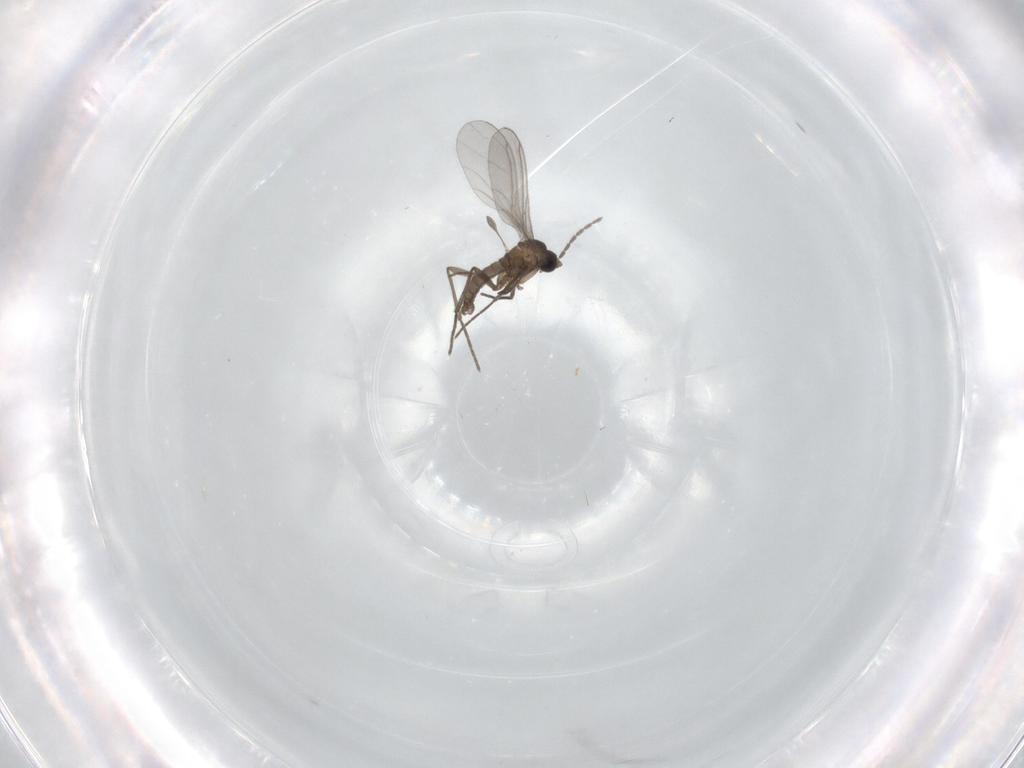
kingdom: Animalia
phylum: Arthropoda
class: Insecta
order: Diptera
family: Sciaridae
